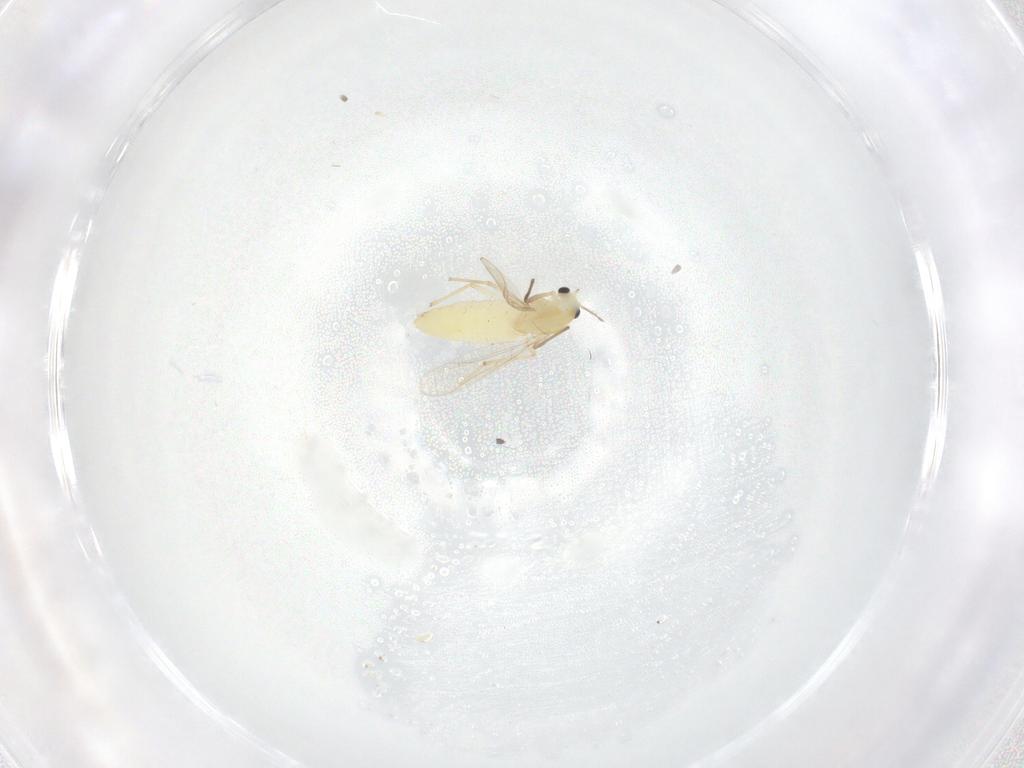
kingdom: Animalia
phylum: Arthropoda
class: Insecta
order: Diptera
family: Chironomidae
